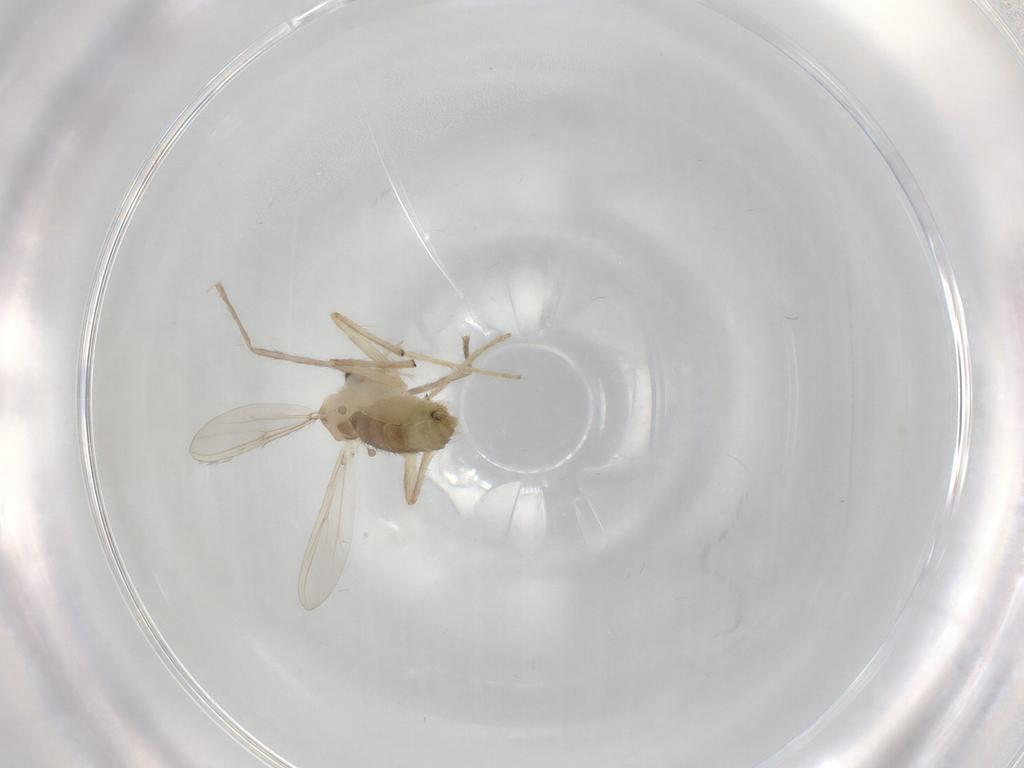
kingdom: Animalia
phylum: Arthropoda
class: Insecta
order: Diptera
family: Chironomidae
